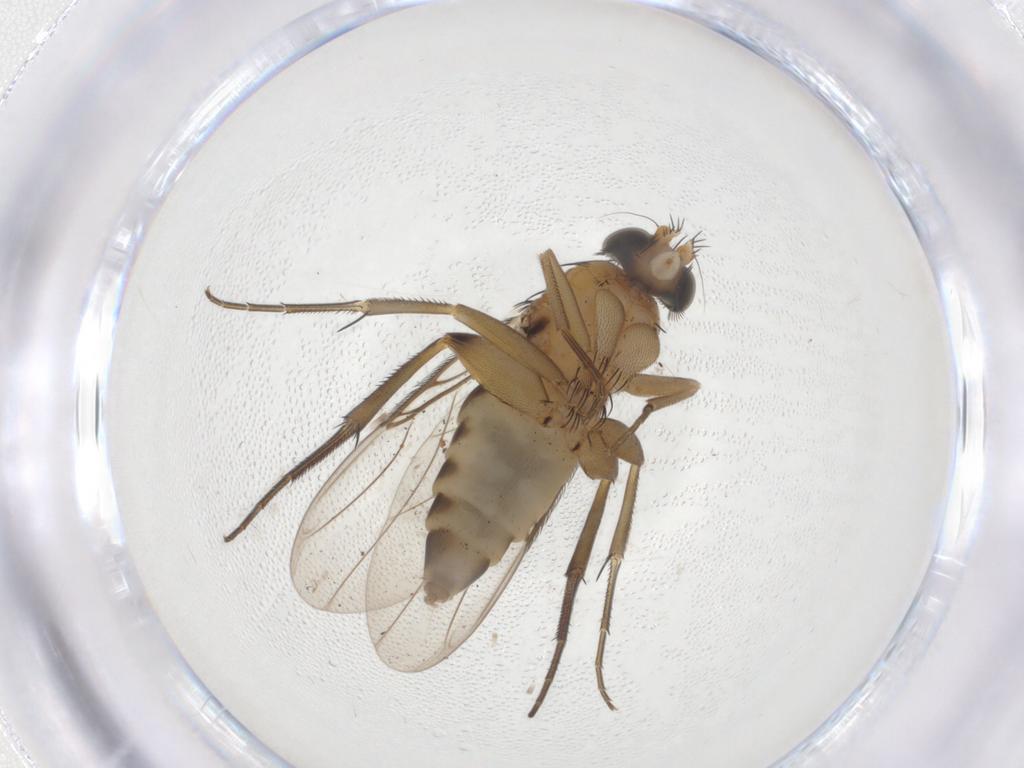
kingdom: Animalia
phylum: Arthropoda
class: Insecta
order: Diptera
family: Phoridae
